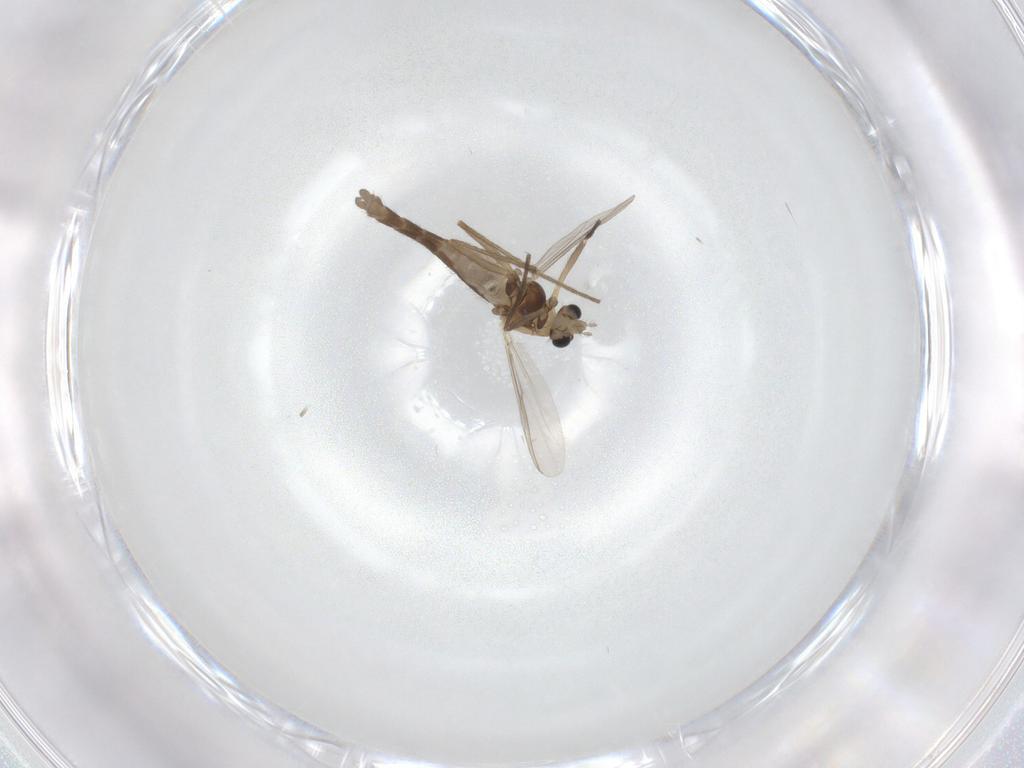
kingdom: Animalia
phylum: Arthropoda
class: Insecta
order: Diptera
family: Chironomidae
